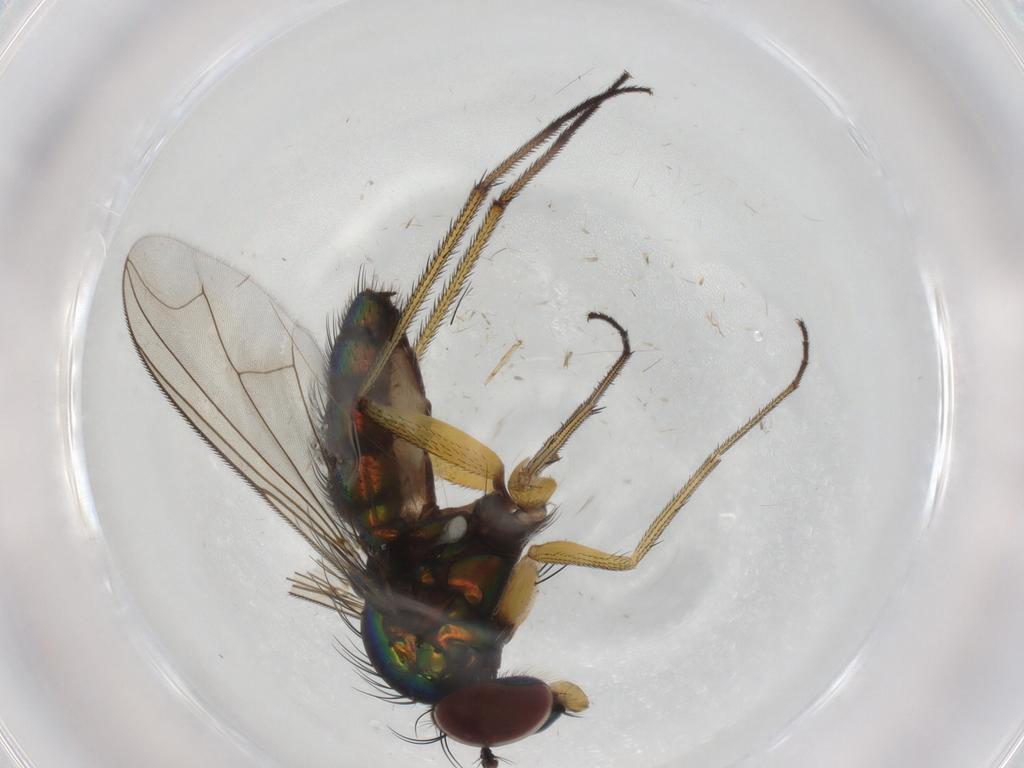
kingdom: Animalia
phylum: Arthropoda
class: Insecta
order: Diptera
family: Dolichopodidae
